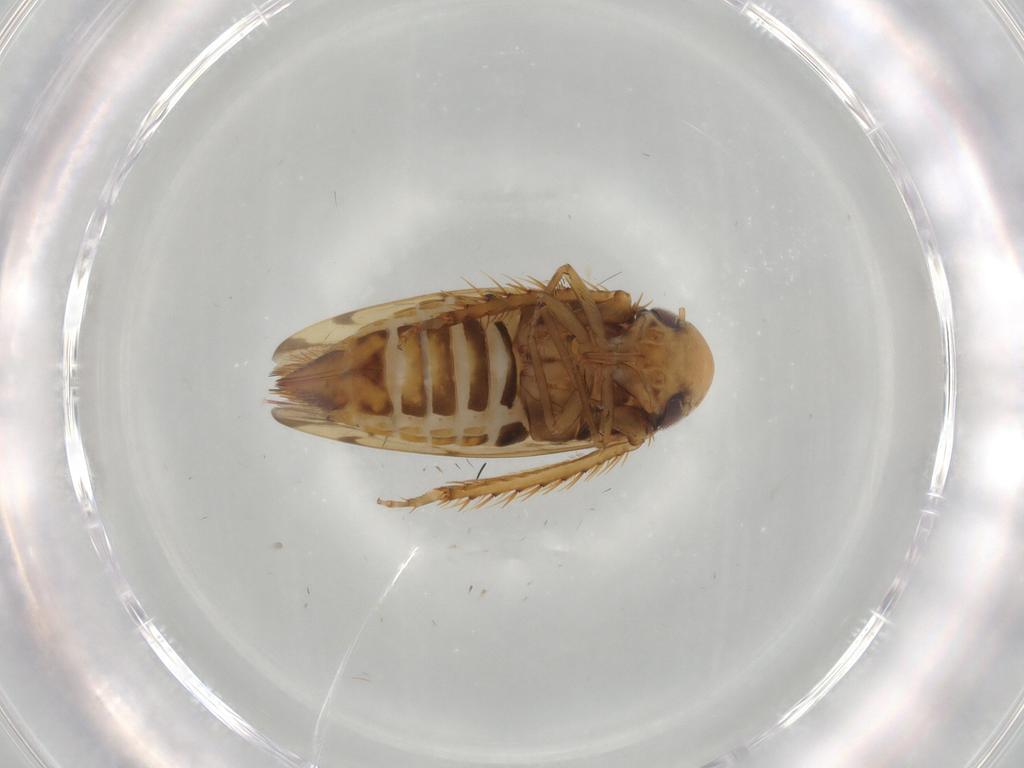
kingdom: Animalia
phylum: Arthropoda
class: Insecta
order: Hemiptera
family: Cicadellidae
